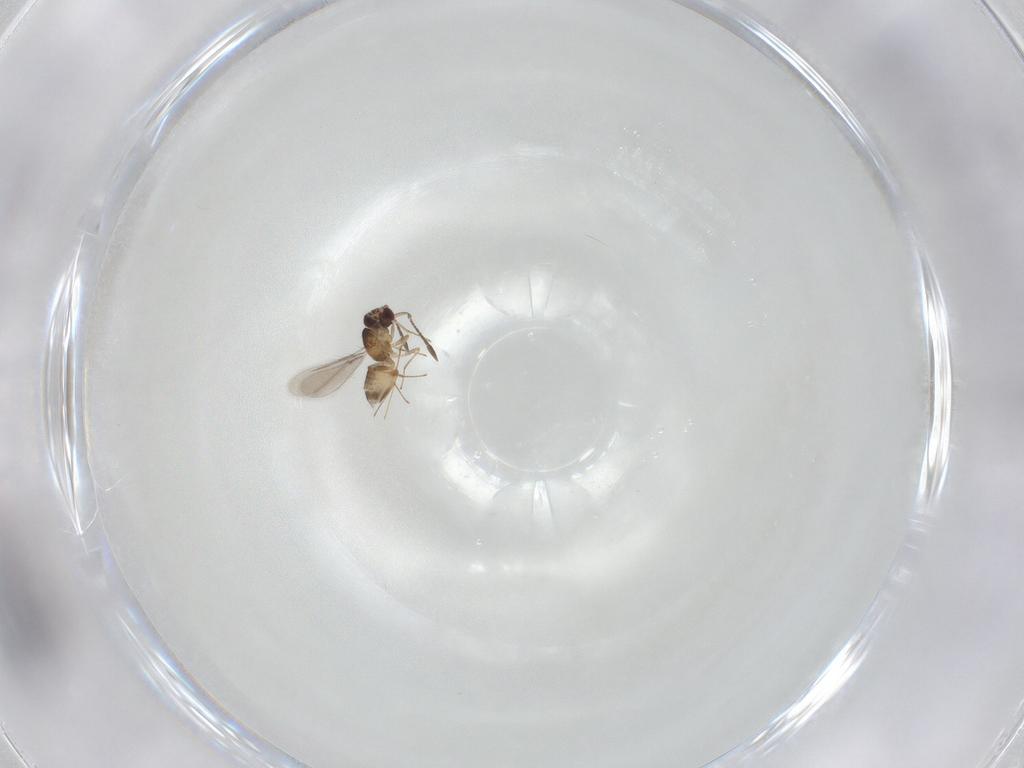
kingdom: Animalia
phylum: Arthropoda
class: Insecta
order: Hymenoptera
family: Mymaridae
